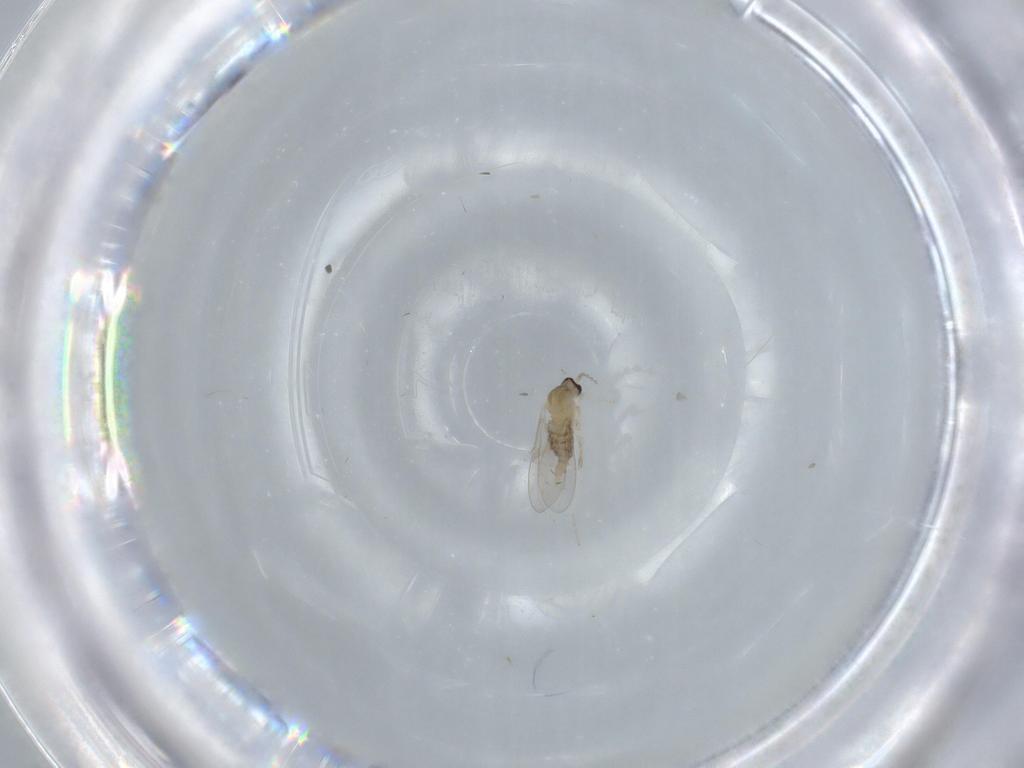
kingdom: Animalia
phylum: Arthropoda
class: Insecta
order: Diptera
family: Cecidomyiidae
